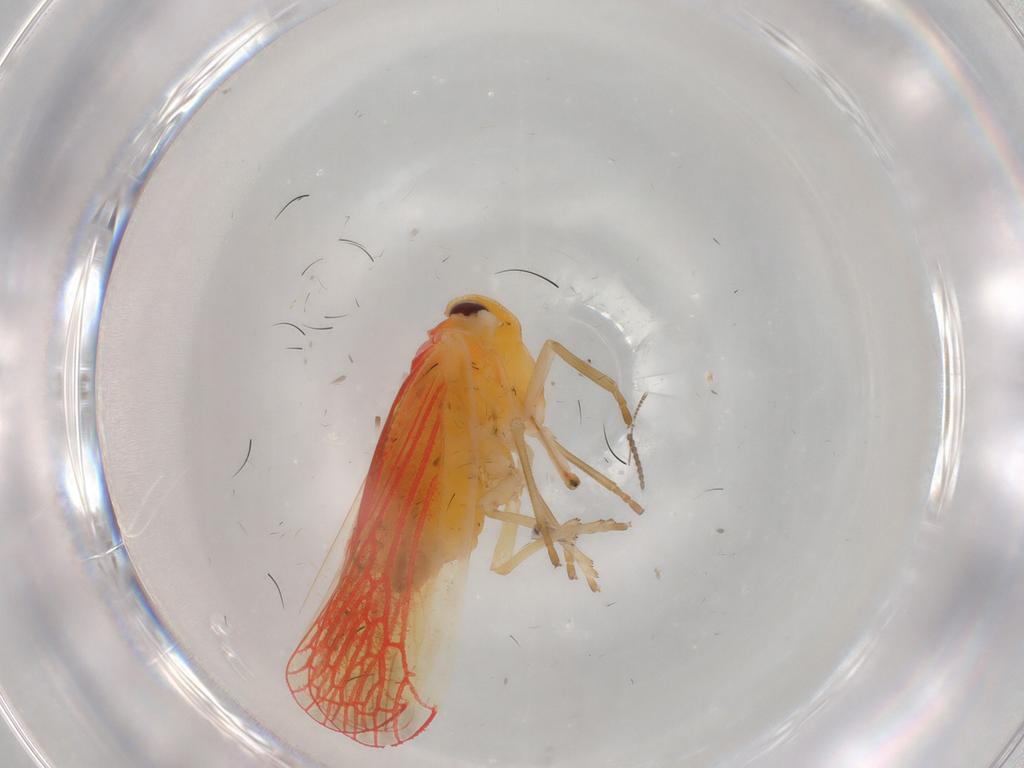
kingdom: Animalia
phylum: Arthropoda
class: Insecta
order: Hemiptera
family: Derbidae
